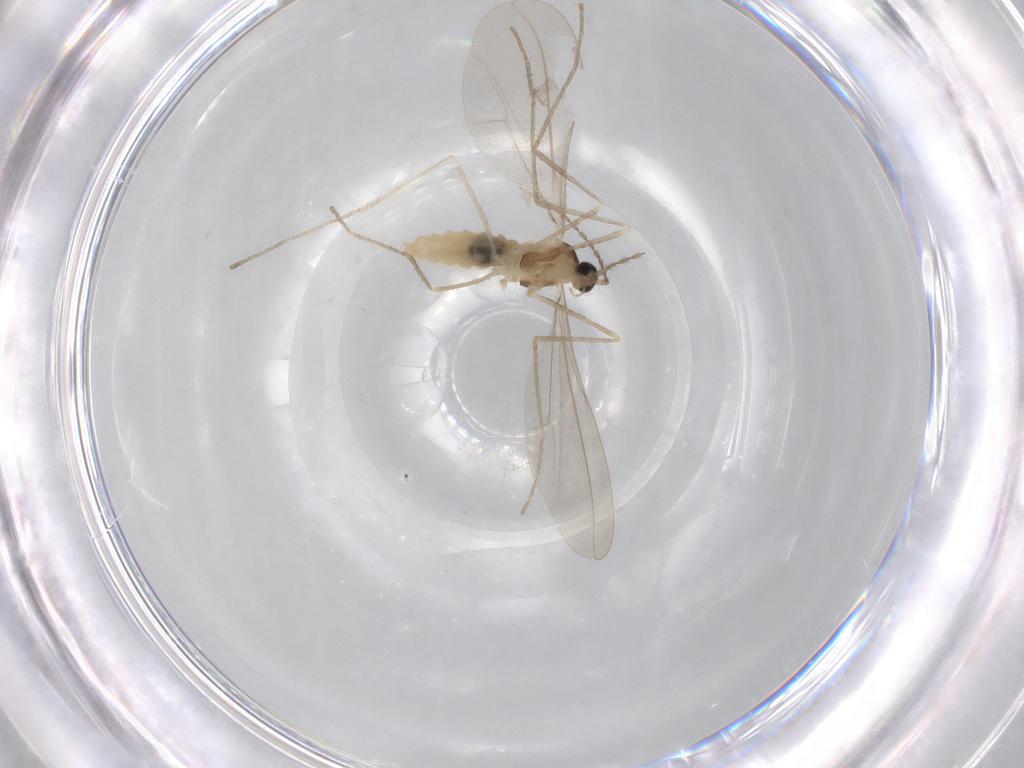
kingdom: Animalia
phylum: Arthropoda
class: Insecta
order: Diptera
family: Cecidomyiidae
